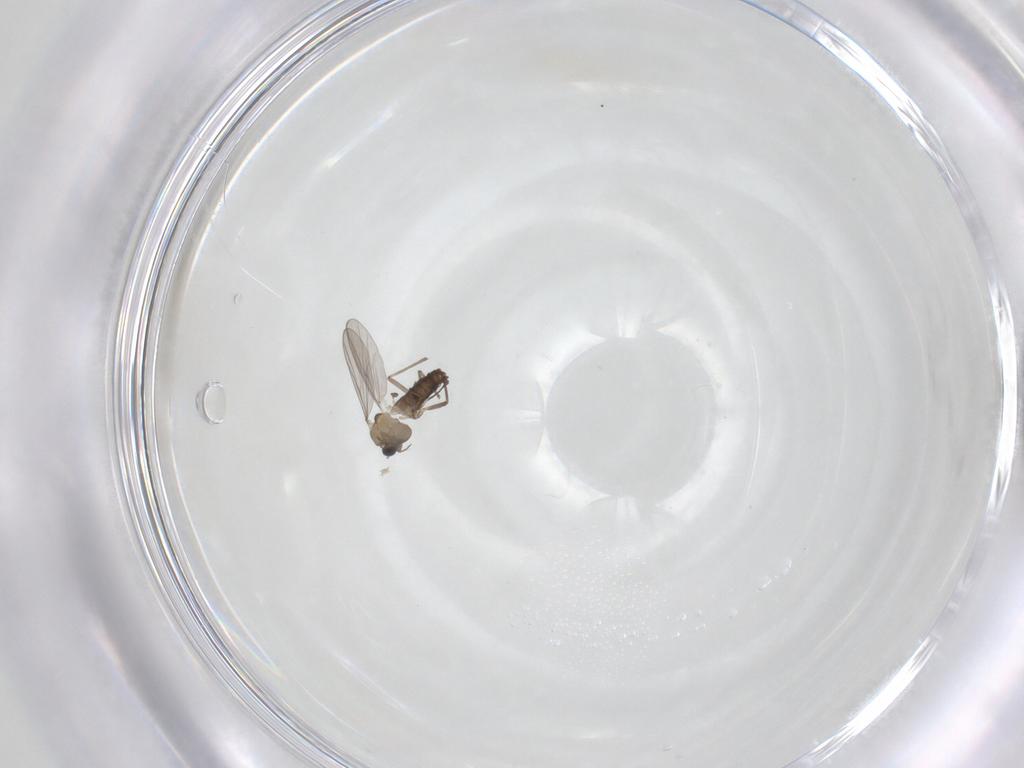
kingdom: Animalia
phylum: Arthropoda
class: Insecta
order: Diptera
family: Chironomidae
